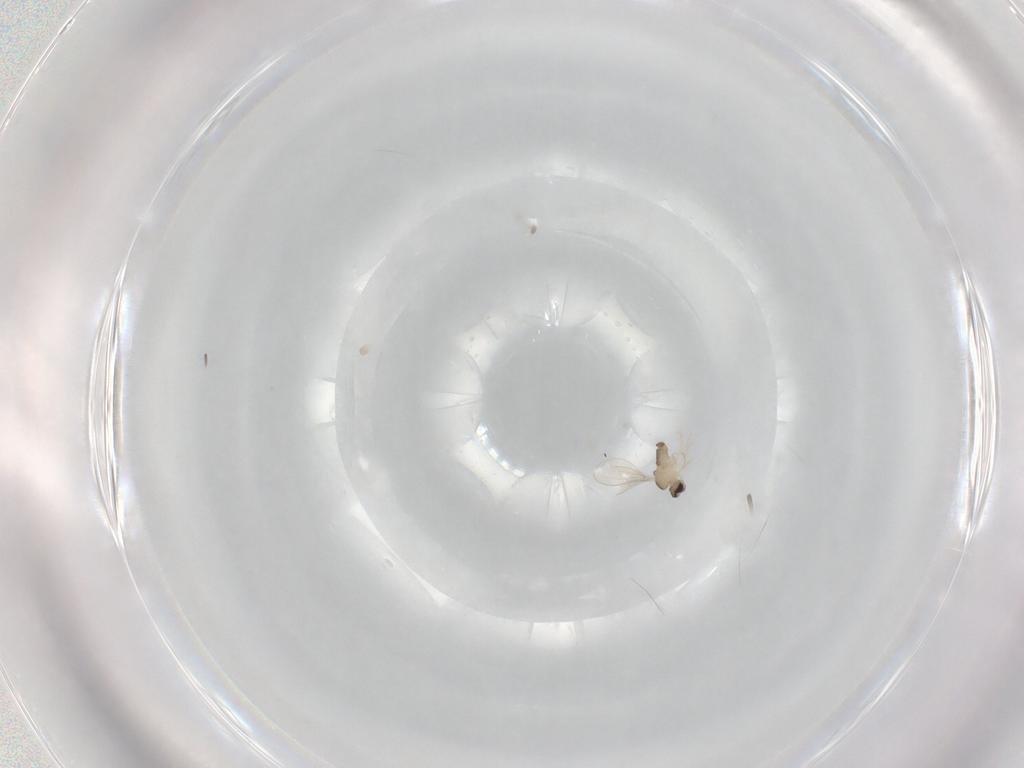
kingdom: Animalia
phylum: Arthropoda
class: Insecta
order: Diptera
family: Cecidomyiidae
